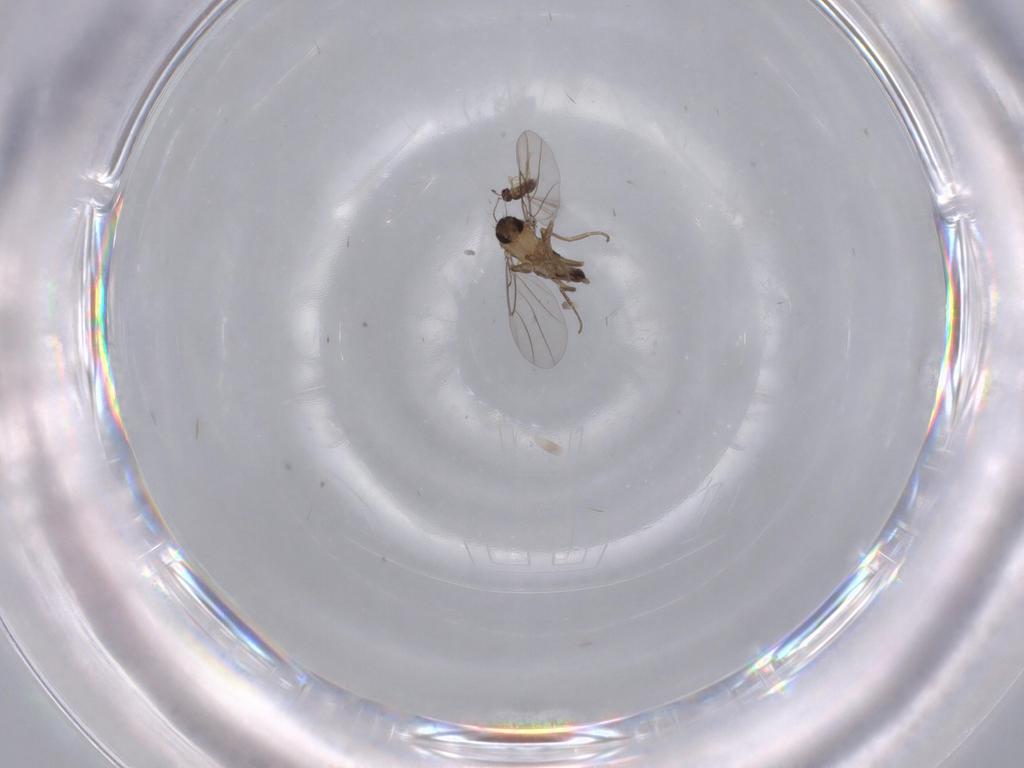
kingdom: Animalia
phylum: Arthropoda
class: Insecta
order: Diptera
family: Phoridae
